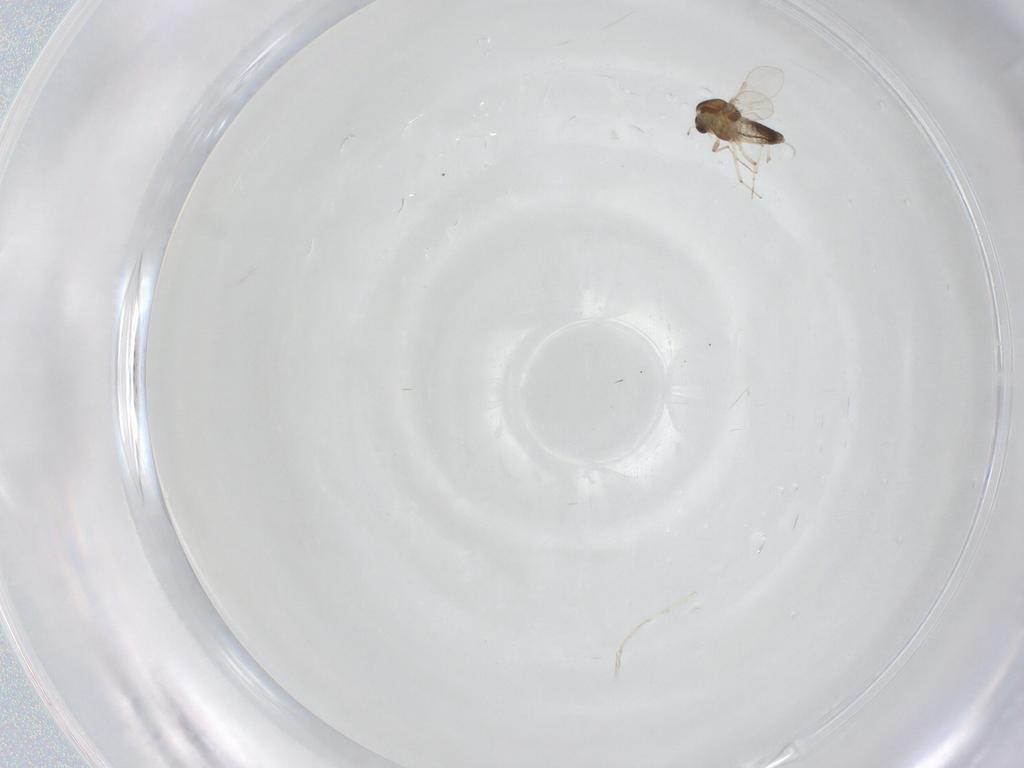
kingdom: Animalia
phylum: Arthropoda
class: Insecta
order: Diptera
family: Chironomidae
